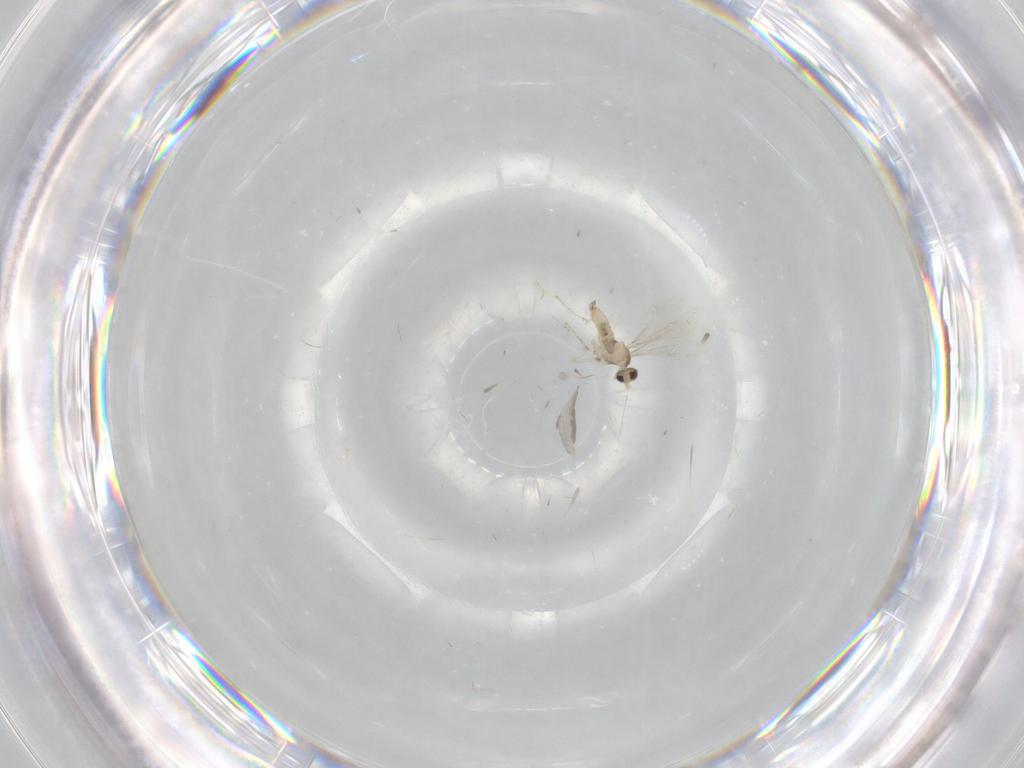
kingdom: Animalia
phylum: Arthropoda
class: Insecta
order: Diptera
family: Cecidomyiidae
